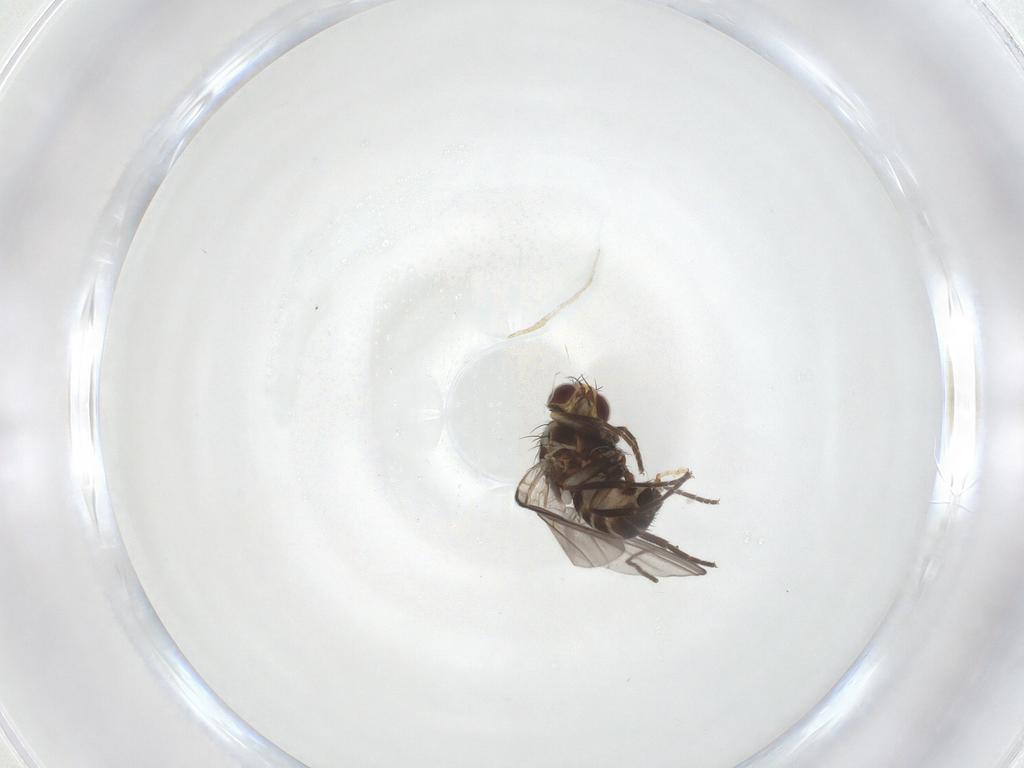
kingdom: Animalia
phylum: Arthropoda
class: Insecta
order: Diptera
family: Agromyzidae
